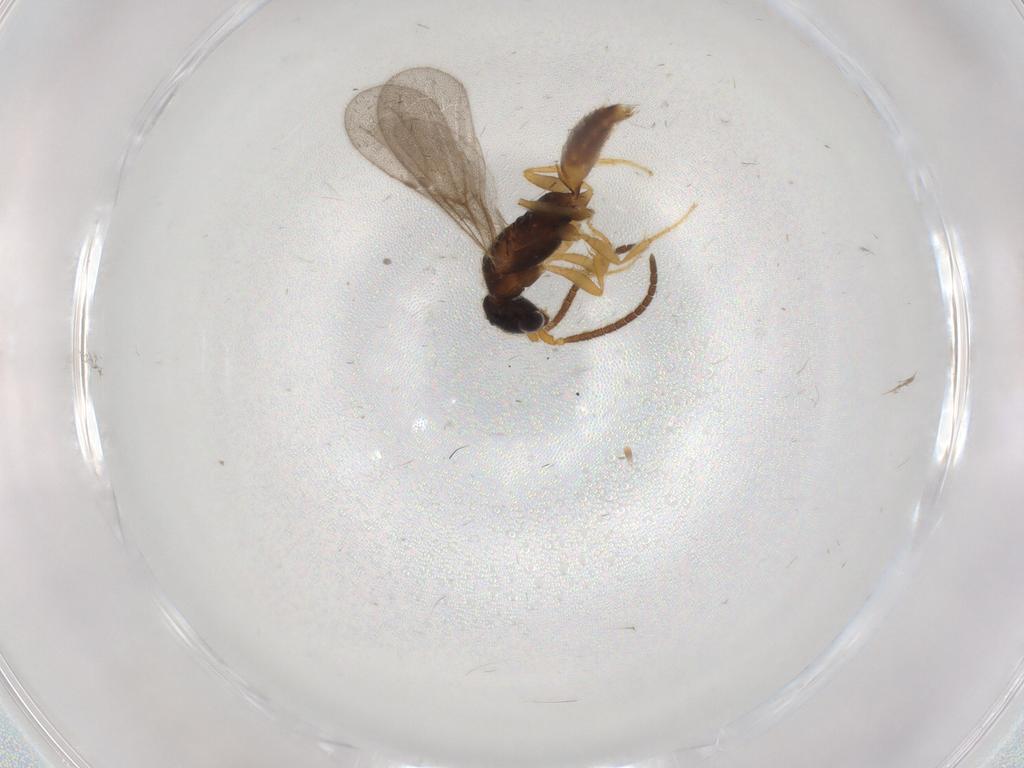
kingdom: Animalia
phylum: Arthropoda
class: Insecta
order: Hymenoptera
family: Bethylidae
